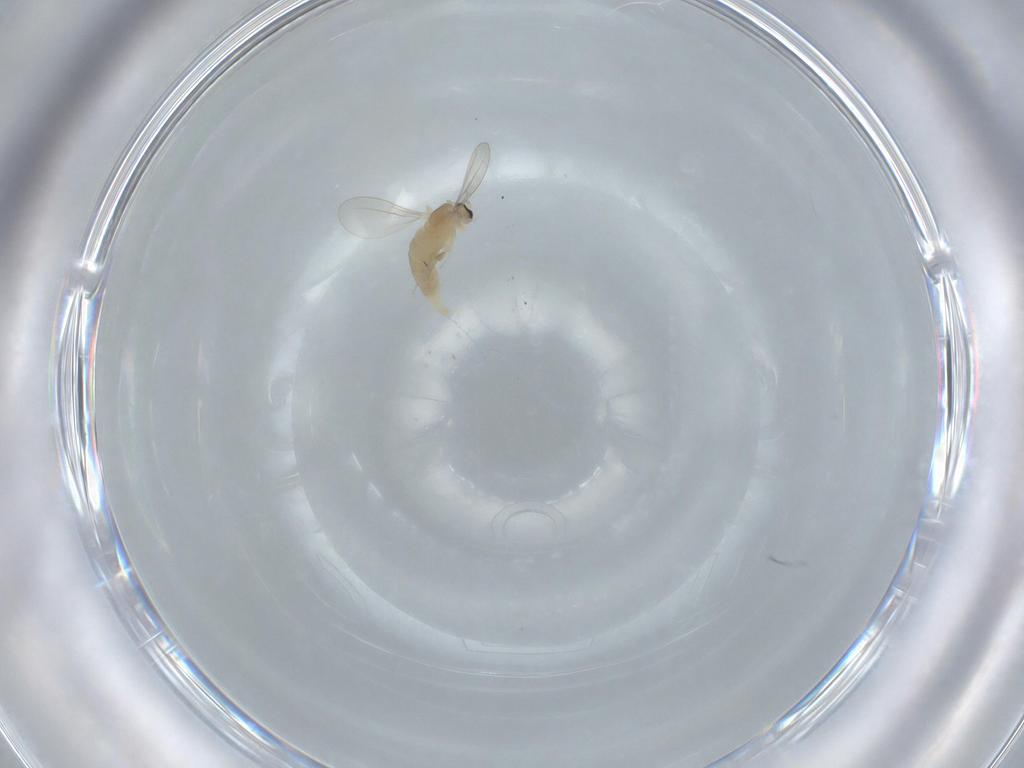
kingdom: Animalia
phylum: Arthropoda
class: Insecta
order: Diptera
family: Cecidomyiidae
